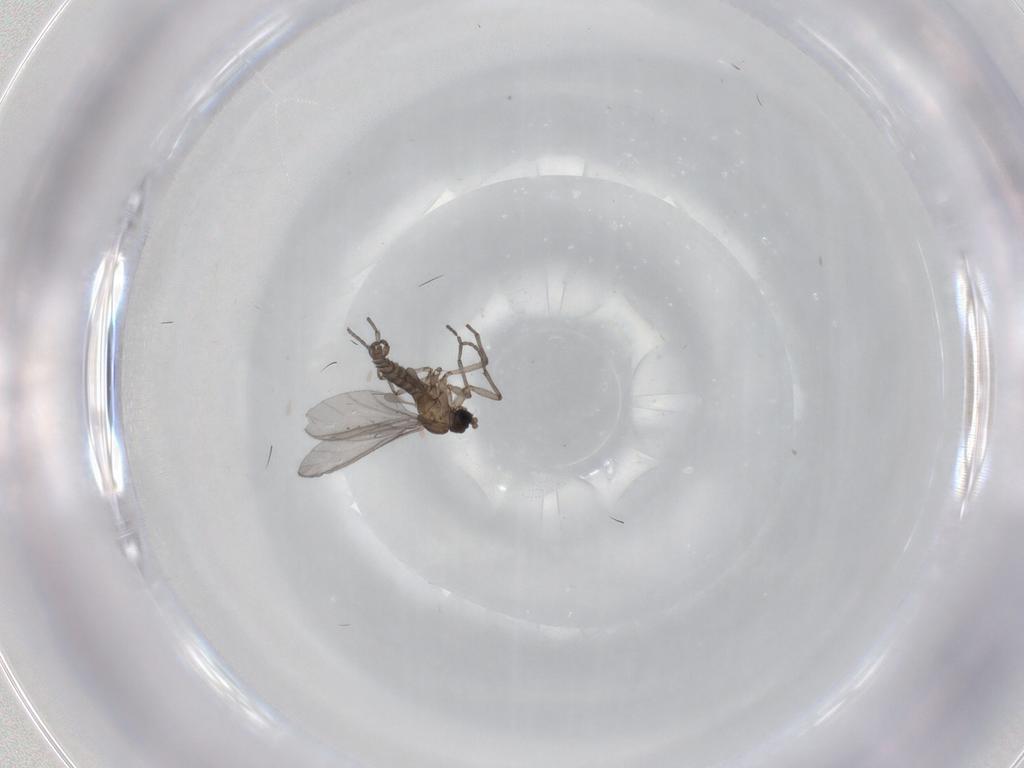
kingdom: Animalia
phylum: Arthropoda
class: Insecta
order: Diptera
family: Sciaridae
